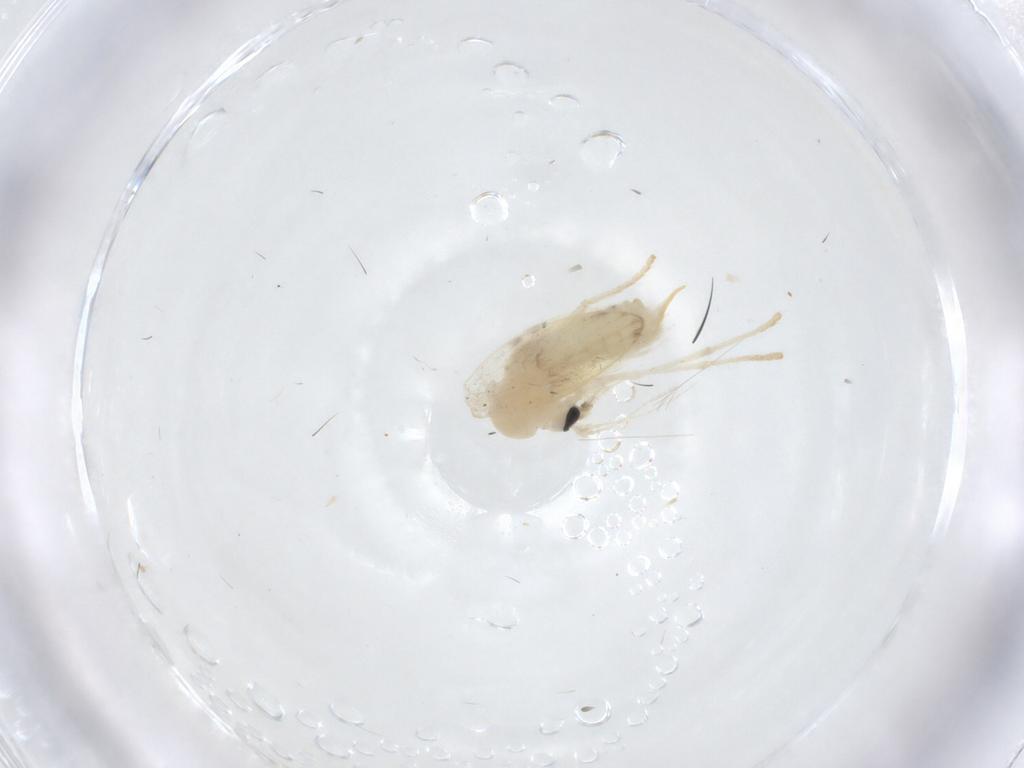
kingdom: Animalia
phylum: Arthropoda
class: Insecta
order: Diptera
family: Psychodidae
